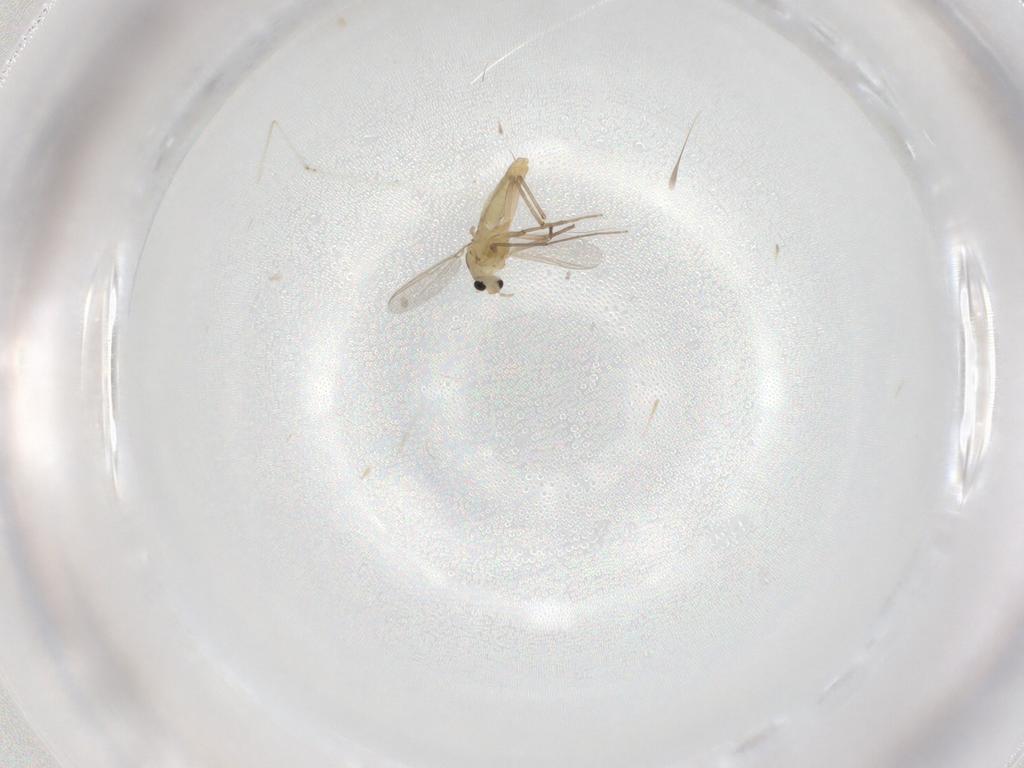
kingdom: Animalia
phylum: Arthropoda
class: Insecta
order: Diptera
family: Chironomidae
